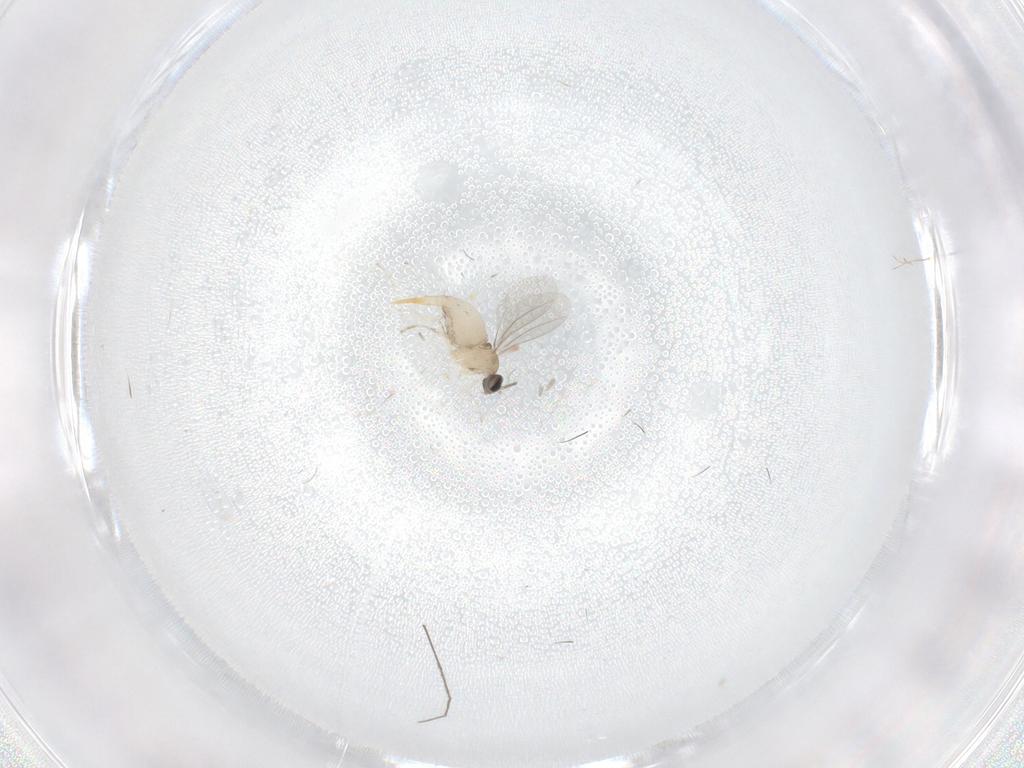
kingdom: Animalia
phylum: Arthropoda
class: Insecta
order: Diptera
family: Chironomidae
